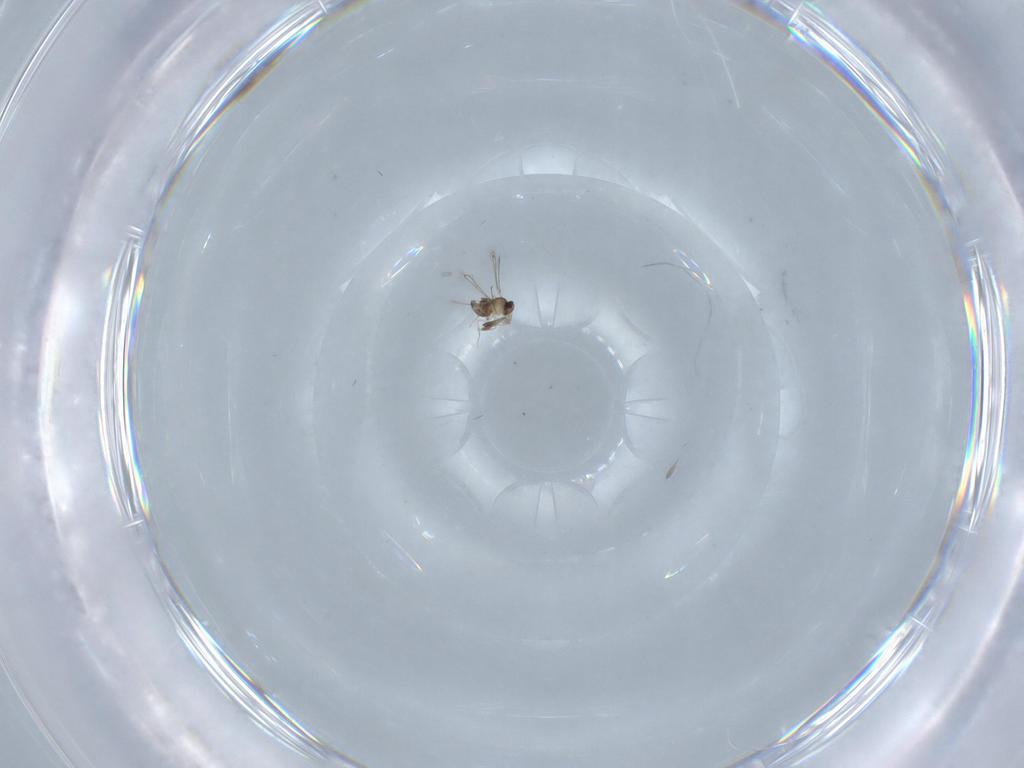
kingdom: Animalia
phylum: Arthropoda
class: Insecta
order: Hymenoptera
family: Mymaridae
